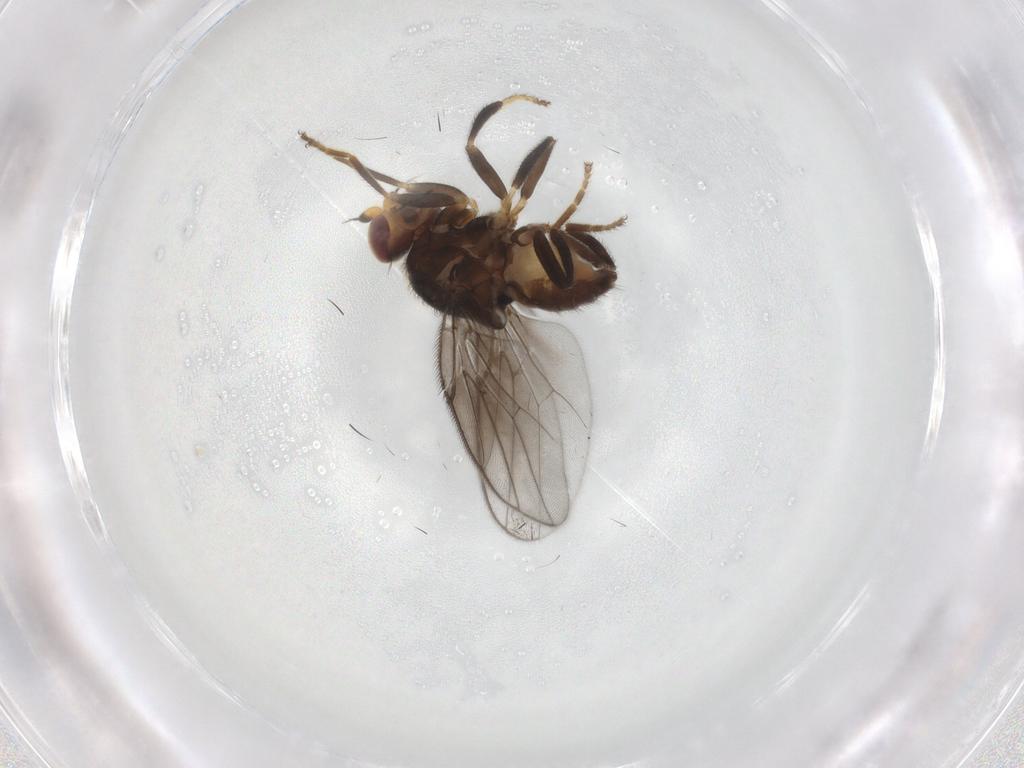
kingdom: Animalia
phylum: Arthropoda
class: Insecta
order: Diptera
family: Chloropidae
